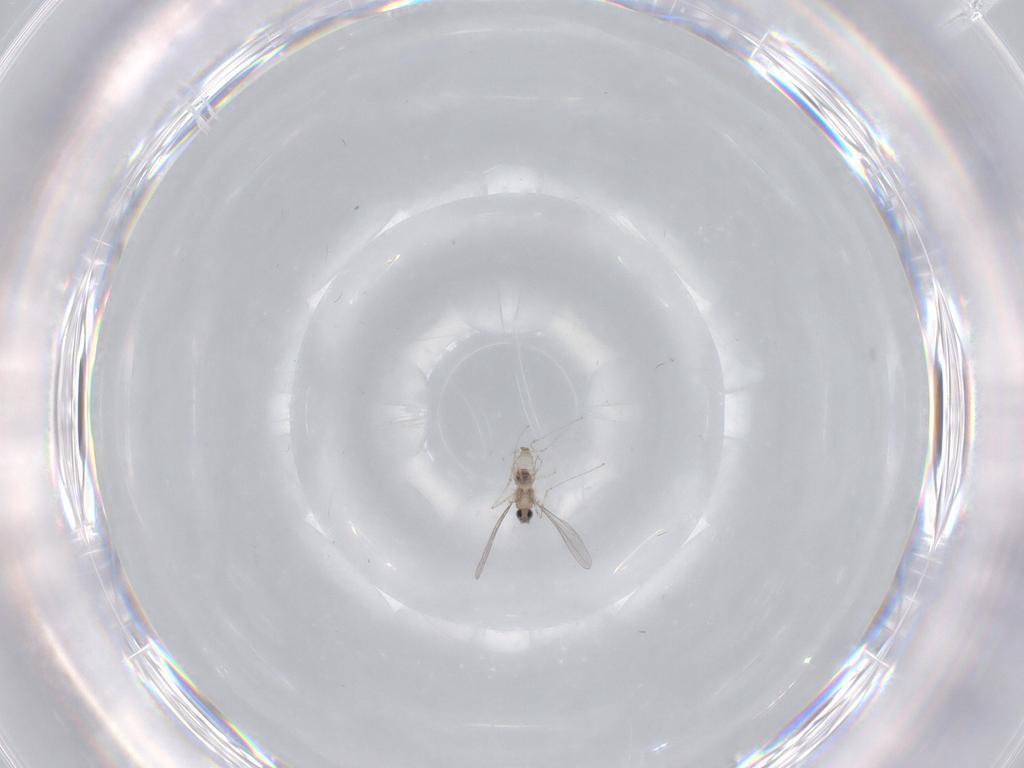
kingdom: Animalia
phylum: Arthropoda
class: Insecta
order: Diptera
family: Cecidomyiidae
